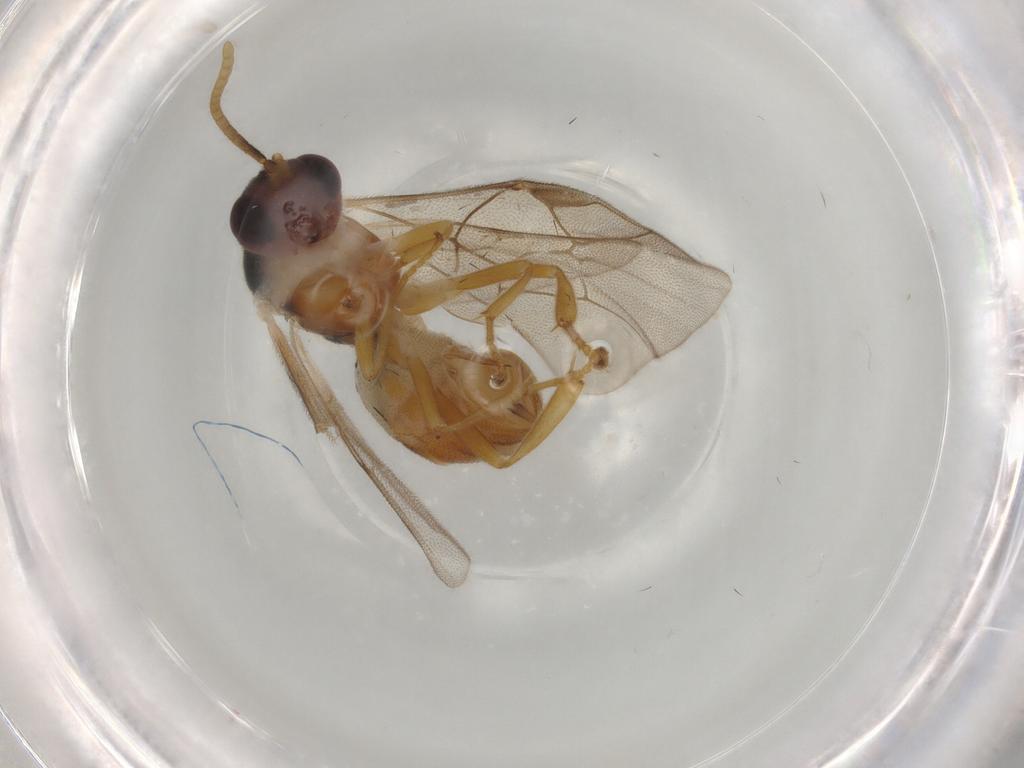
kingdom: Animalia
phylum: Arthropoda
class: Insecta
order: Hymenoptera
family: Ichneumonidae
